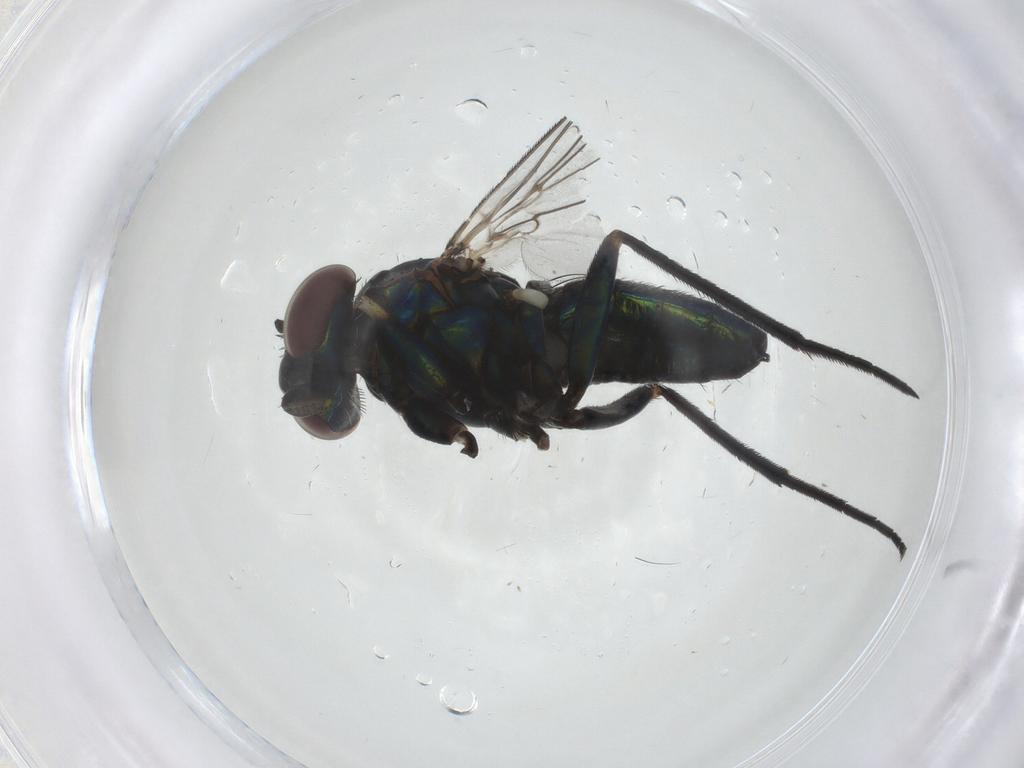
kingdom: Animalia
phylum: Arthropoda
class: Insecta
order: Diptera
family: Dolichopodidae
